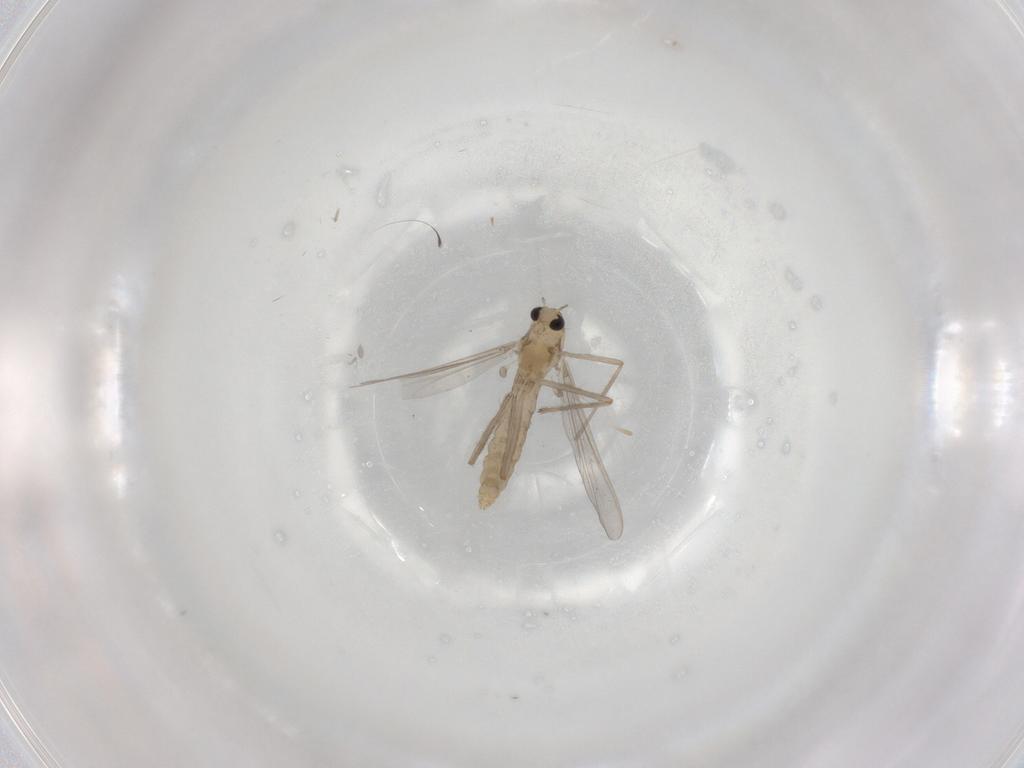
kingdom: Animalia
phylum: Arthropoda
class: Insecta
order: Diptera
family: Chironomidae
